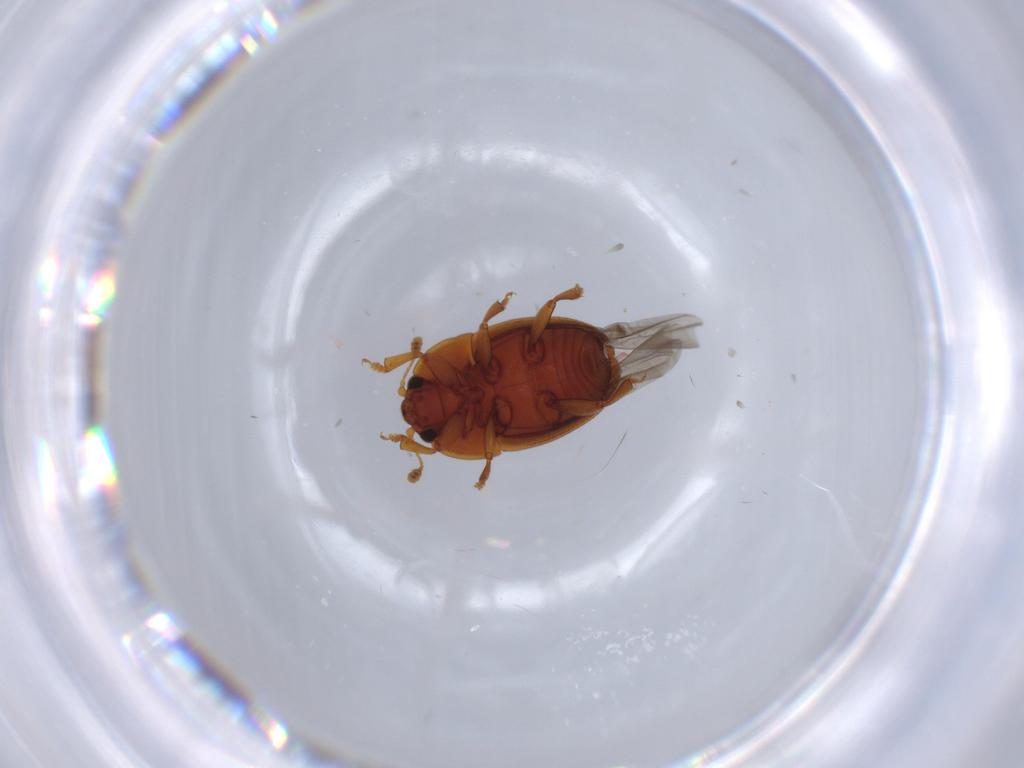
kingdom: Animalia
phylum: Arthropoda
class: Insecta
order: Coleoptera
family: Nitidulidae
